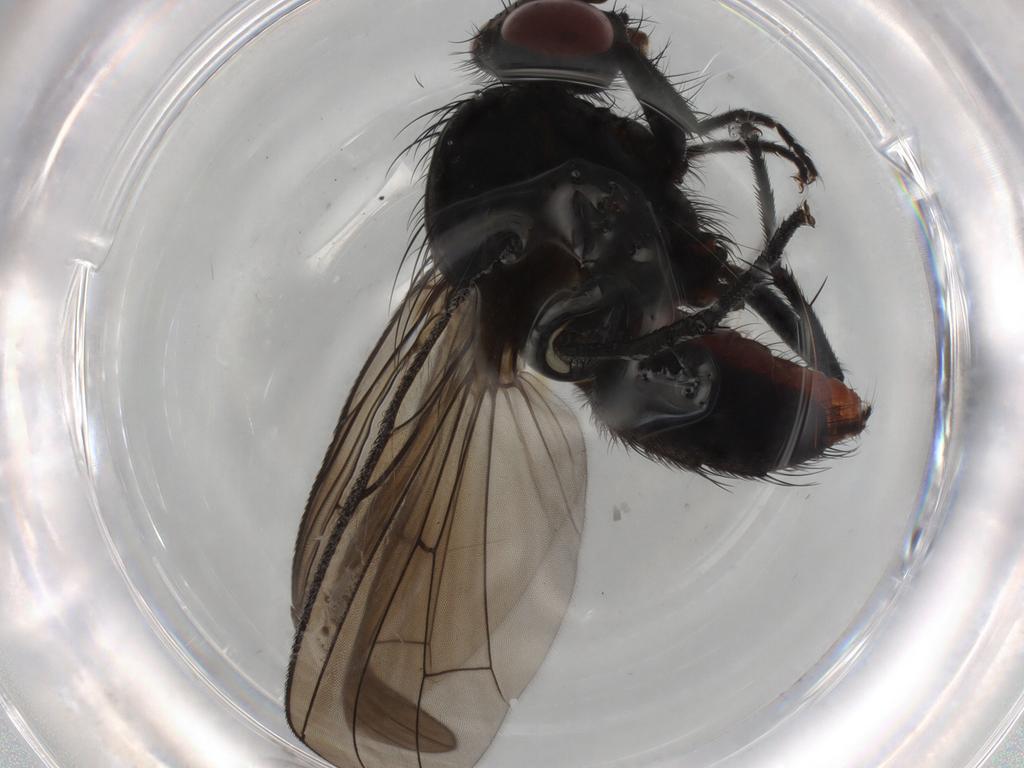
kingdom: Animalia
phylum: Arthropoda
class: Insecta
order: Diptera
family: Anthomyiidae
